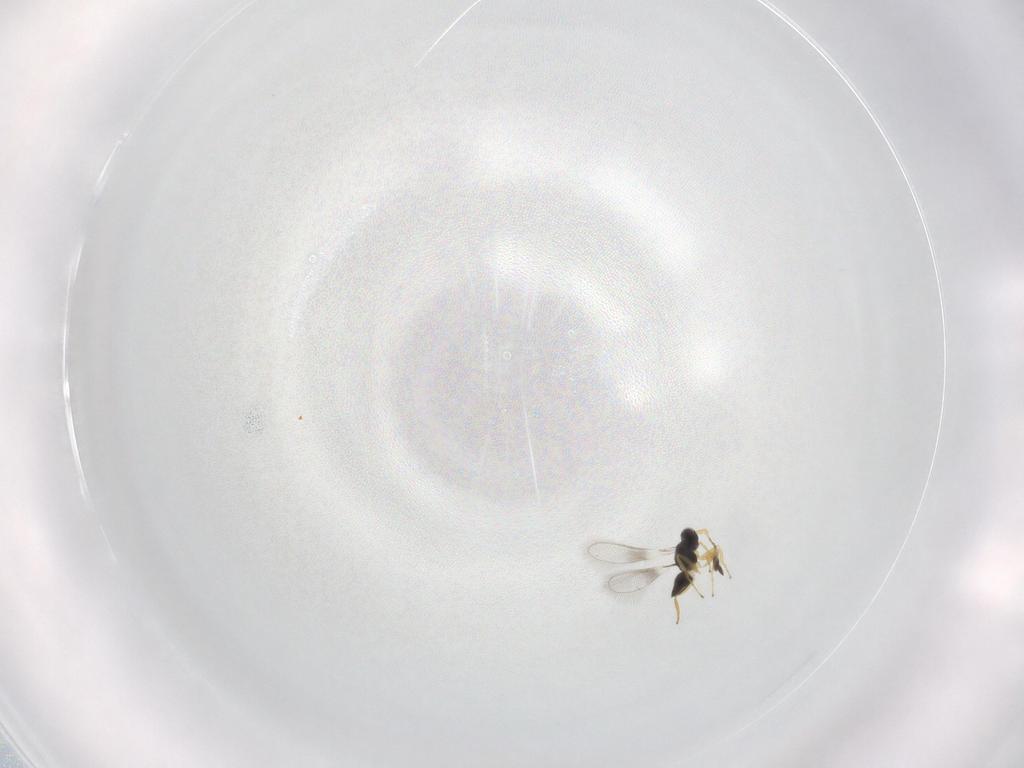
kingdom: Animalia
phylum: Arthropoda
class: Insecta
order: Hymenoptera
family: Mymaridae
